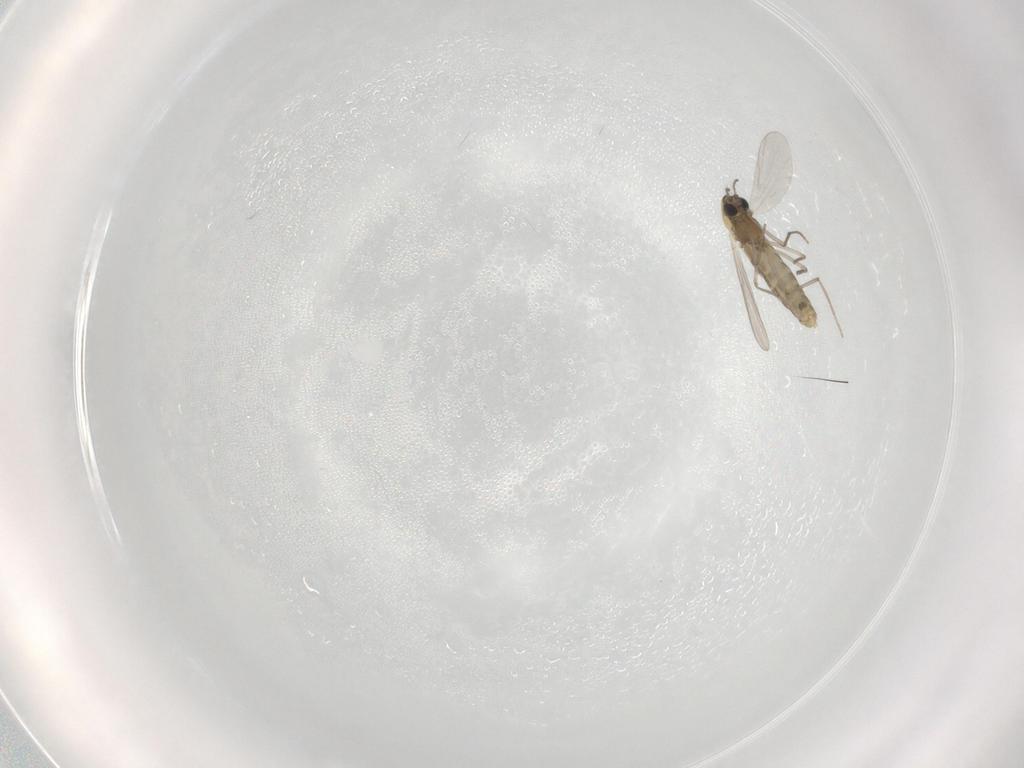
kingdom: Animalia
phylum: Arthropoda
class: Insecta
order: Diptera
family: Chironomidae
